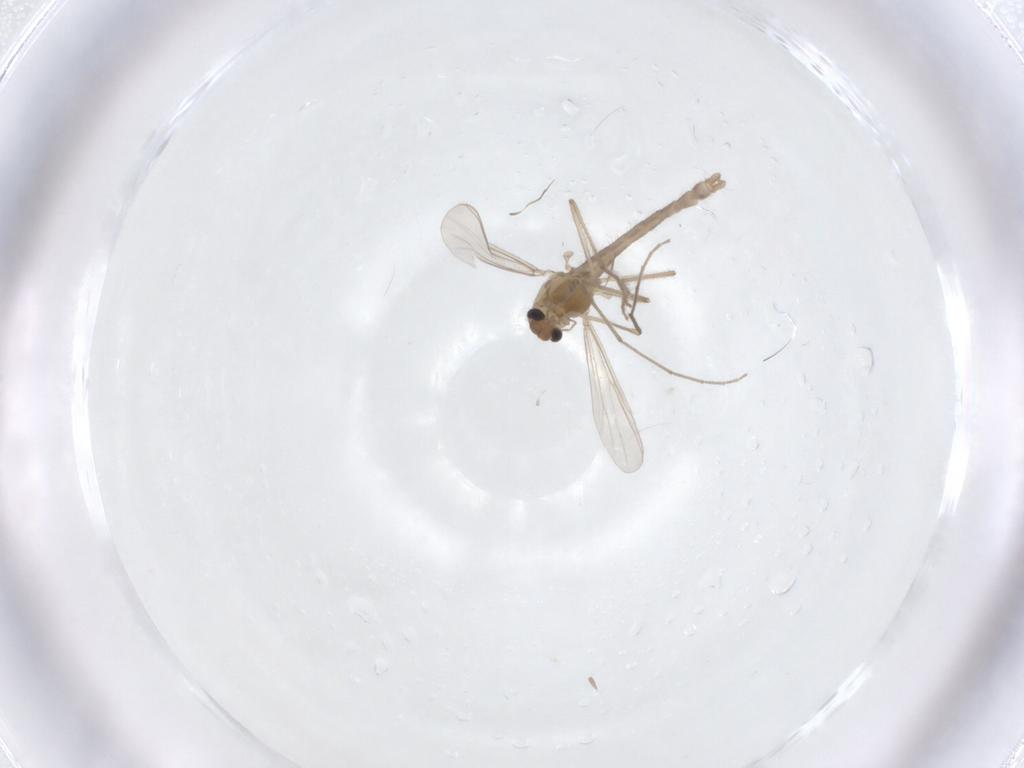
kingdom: Animalia
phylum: Arthropoda
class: Insecta
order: Diptera
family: Chironomidae
